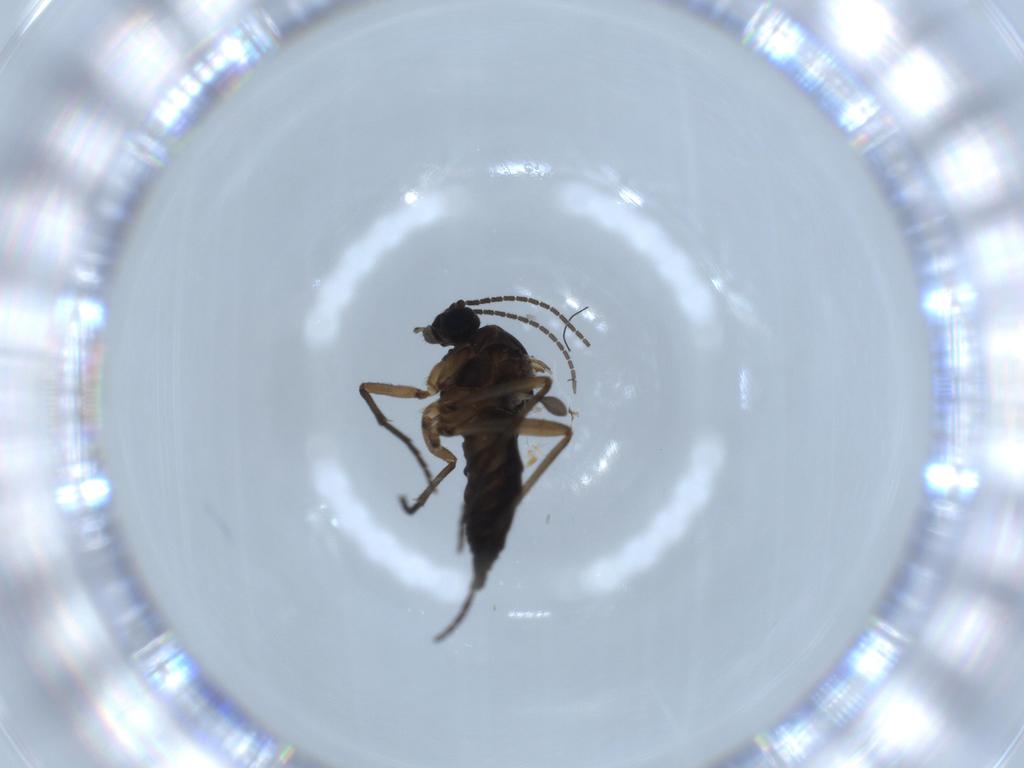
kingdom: Animalia
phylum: Arthropoda
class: Insecta
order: Diptera
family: Sciaridae
